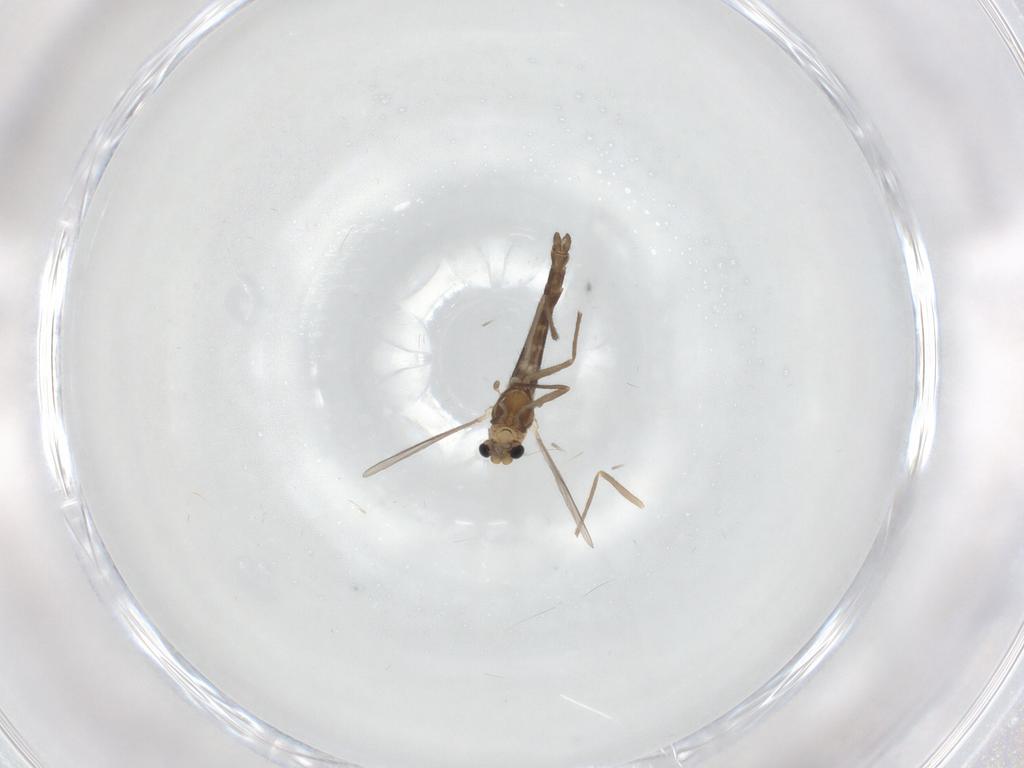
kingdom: Animalia
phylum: Arthropoda
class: Insecta
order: Diptera
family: Chironomidae
